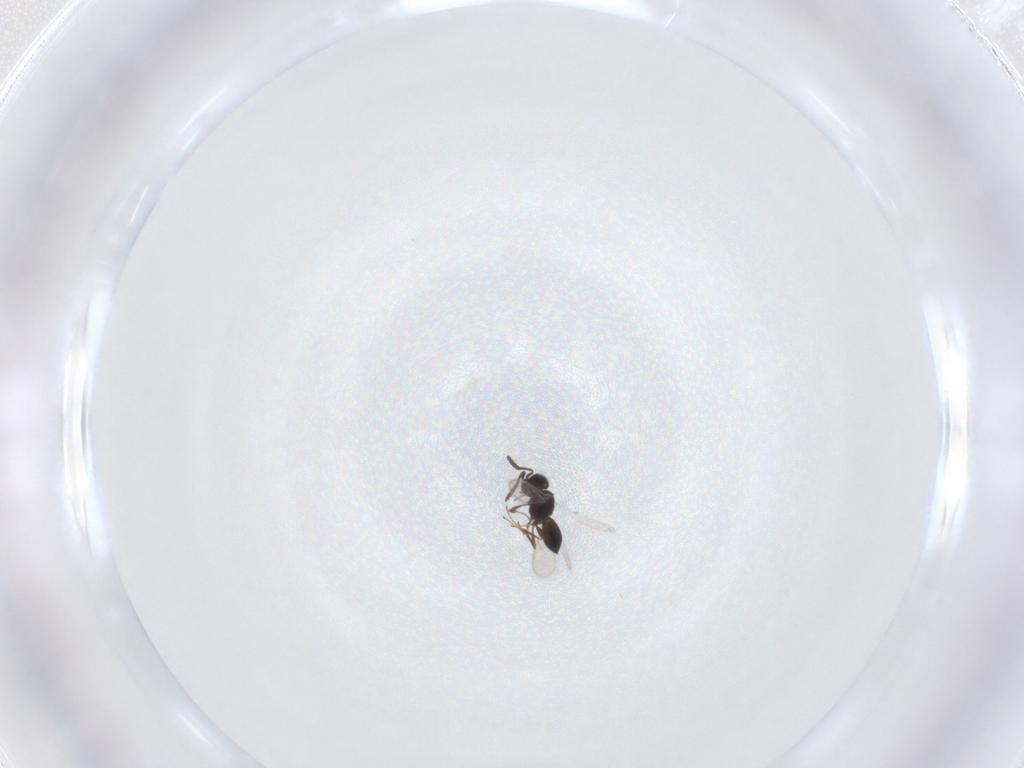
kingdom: Animalia
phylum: Arthropoda
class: Insecta
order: Hymenoptera
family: Scelionidae
